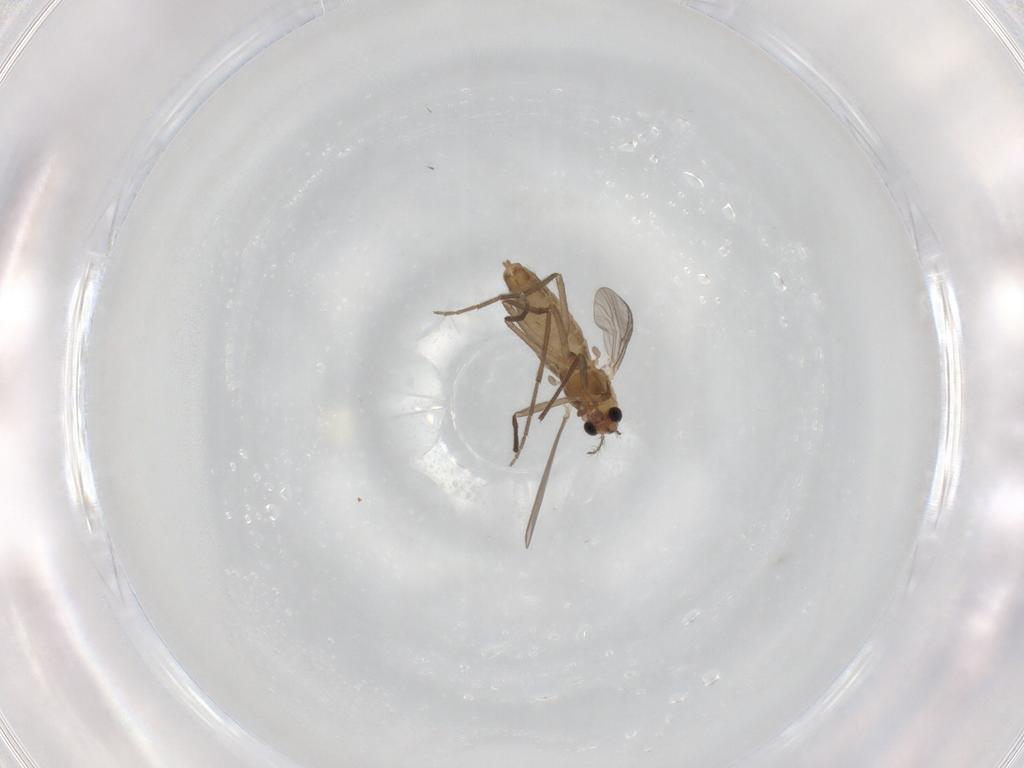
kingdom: Animalia
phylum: Arthropoda
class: Insecta
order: Diptera
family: Chironomidae
